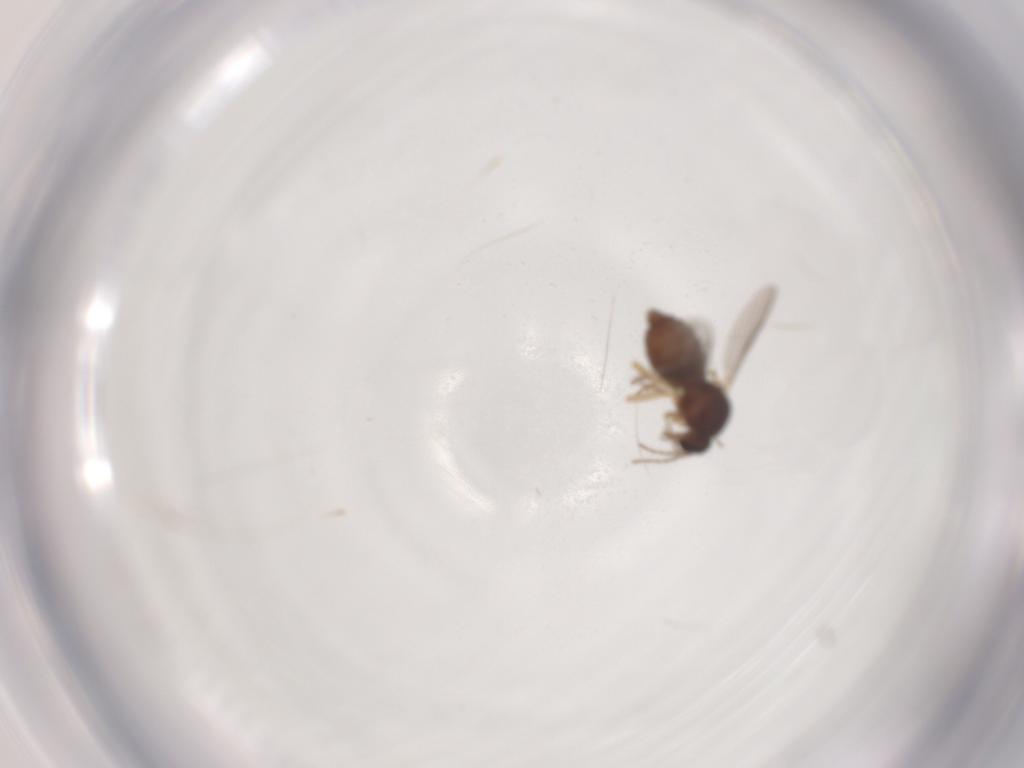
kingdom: Animalia
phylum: Arthropoda
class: Insecta
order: Diptera
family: Ceratopogonidae
